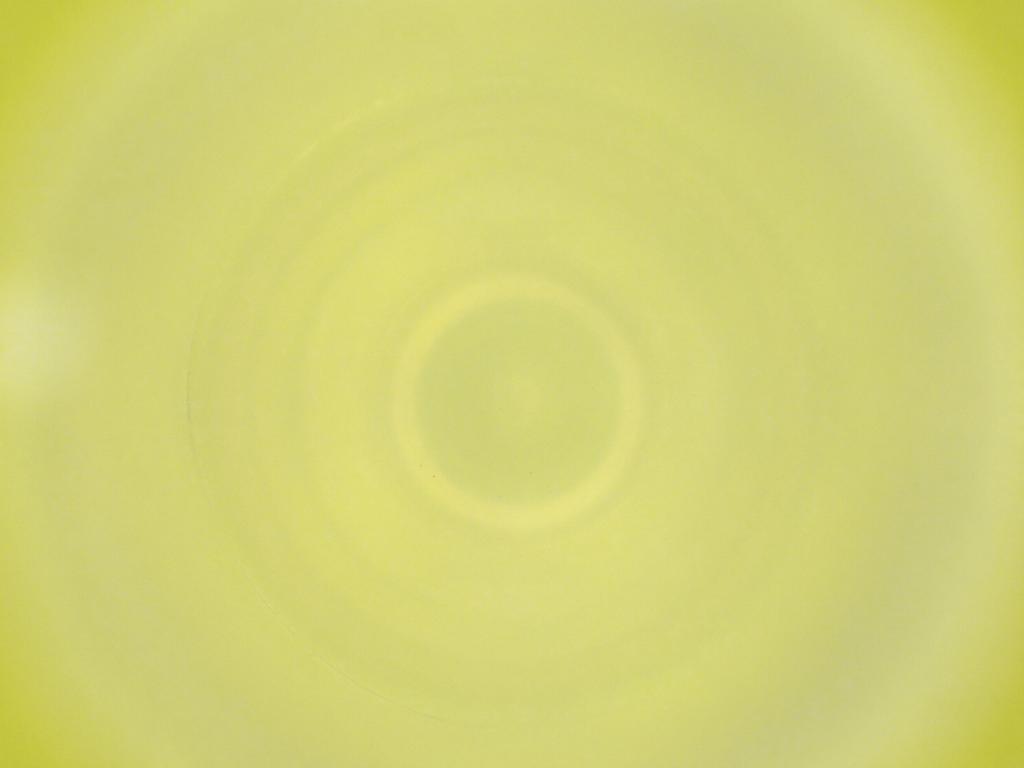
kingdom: Animalia
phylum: Arthropoda
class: Insecta
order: Diptera
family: Cecidomyiidae
